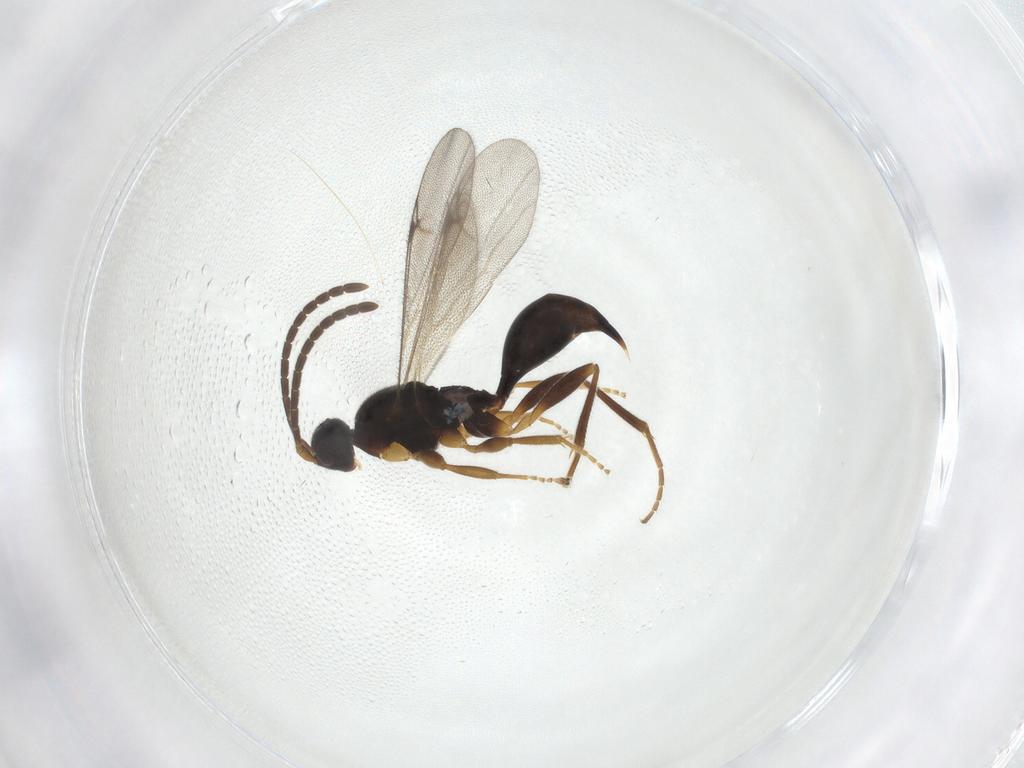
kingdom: Animalia
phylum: Arthropoda
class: Insecta
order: Hymenoptera
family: Proctotrupidae
